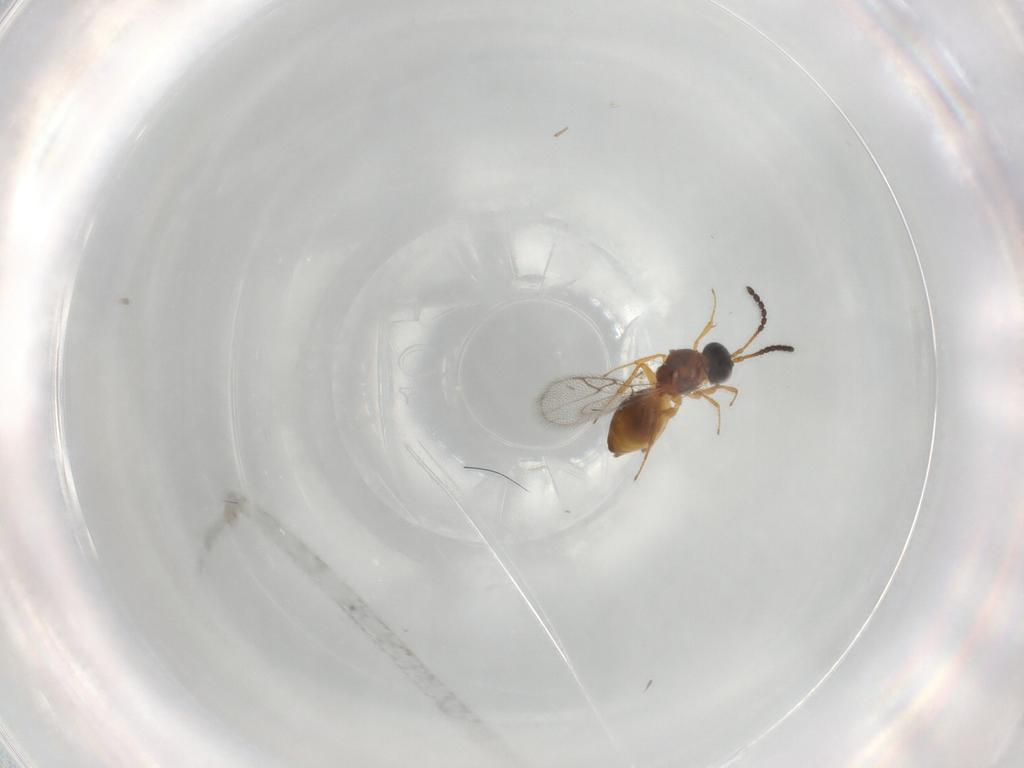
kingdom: Animalia
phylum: Arthropoda
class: Insecta
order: Hymenoptera
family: Figitidae
